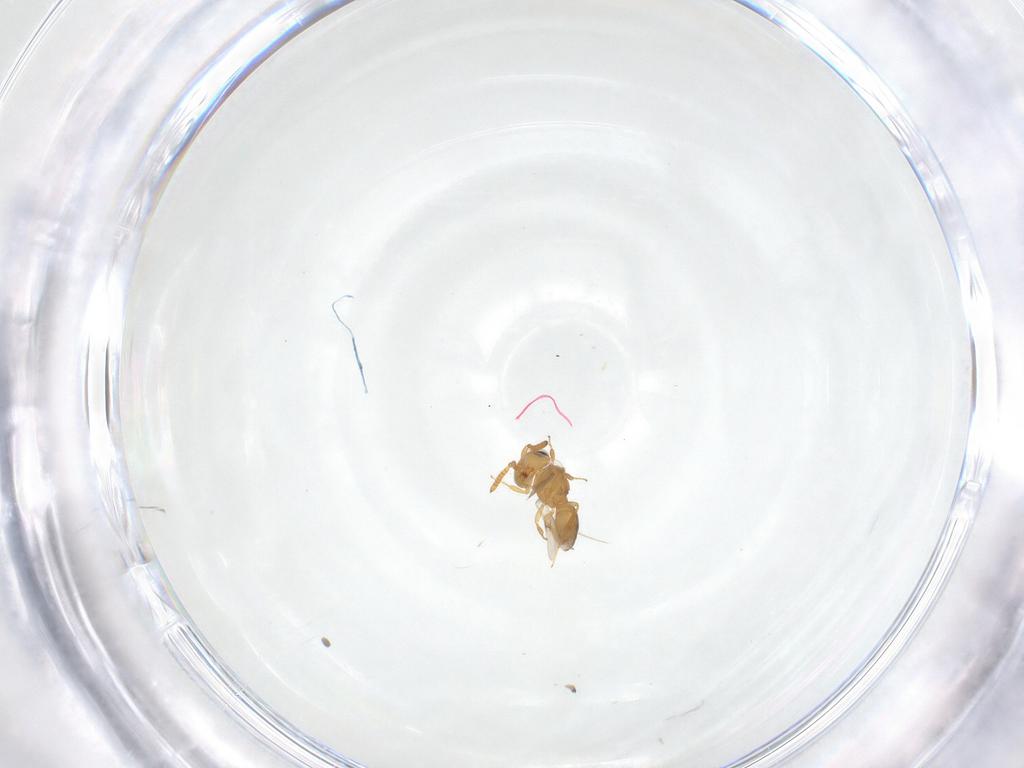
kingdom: Animalia
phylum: Arthropoda
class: Insecta
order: Hymenoptera
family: Scelionidae
